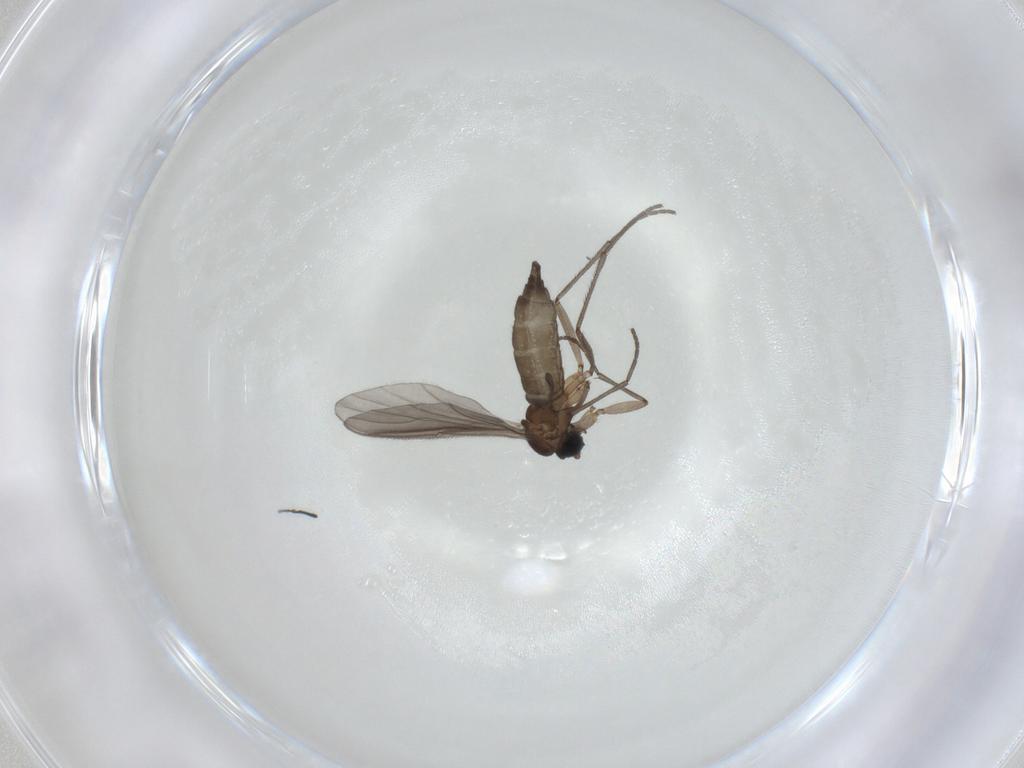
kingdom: Animalia
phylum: Arthropoda
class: Insecta
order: Diptera
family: Sciaridae
